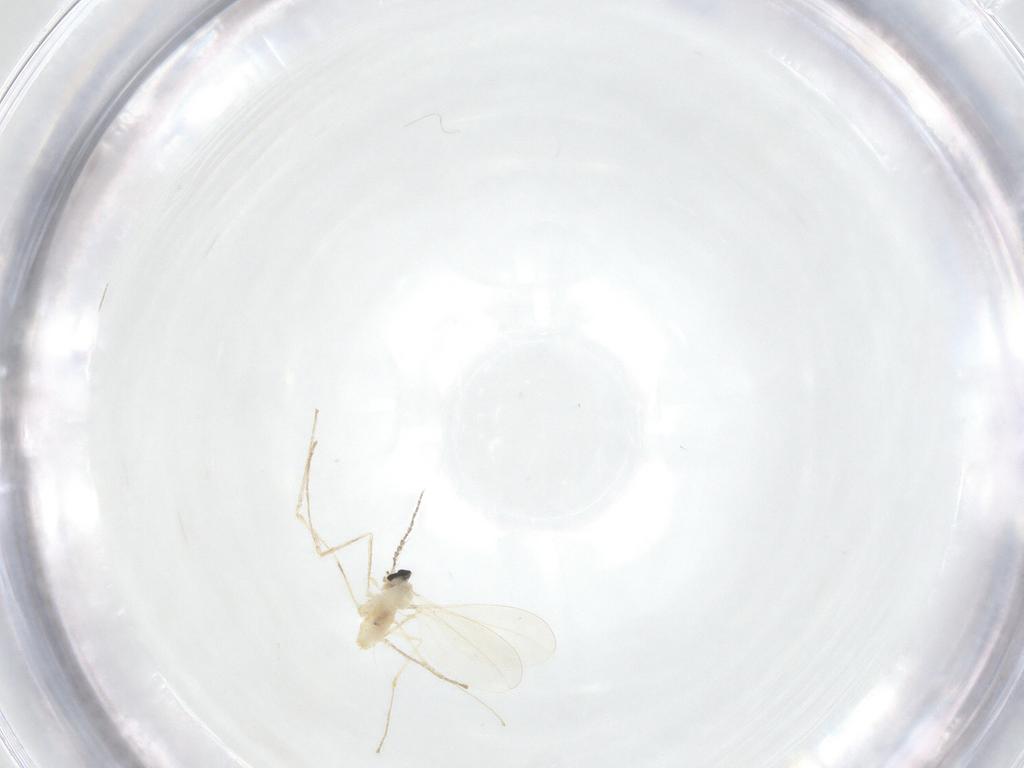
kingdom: Animalia
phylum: Arthropoda
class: Insecta
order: Diptera
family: Cecidomyiidae
